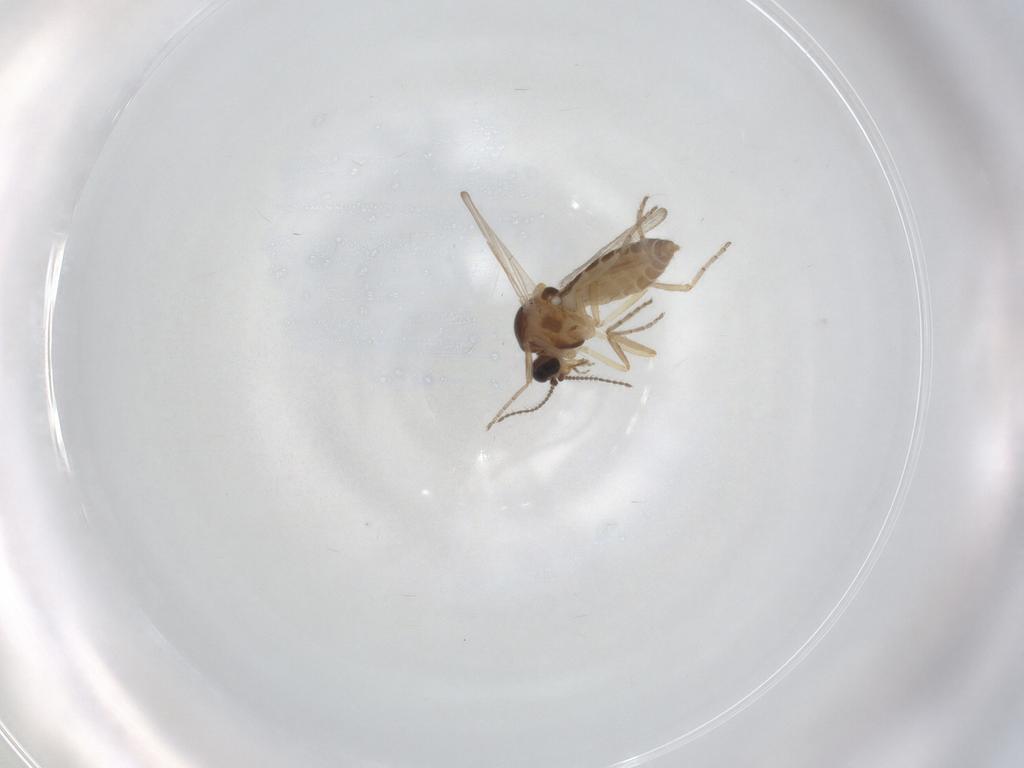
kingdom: Animalia
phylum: Arthropoda
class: Insecta
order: Diptera
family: Ceratopogonidae
